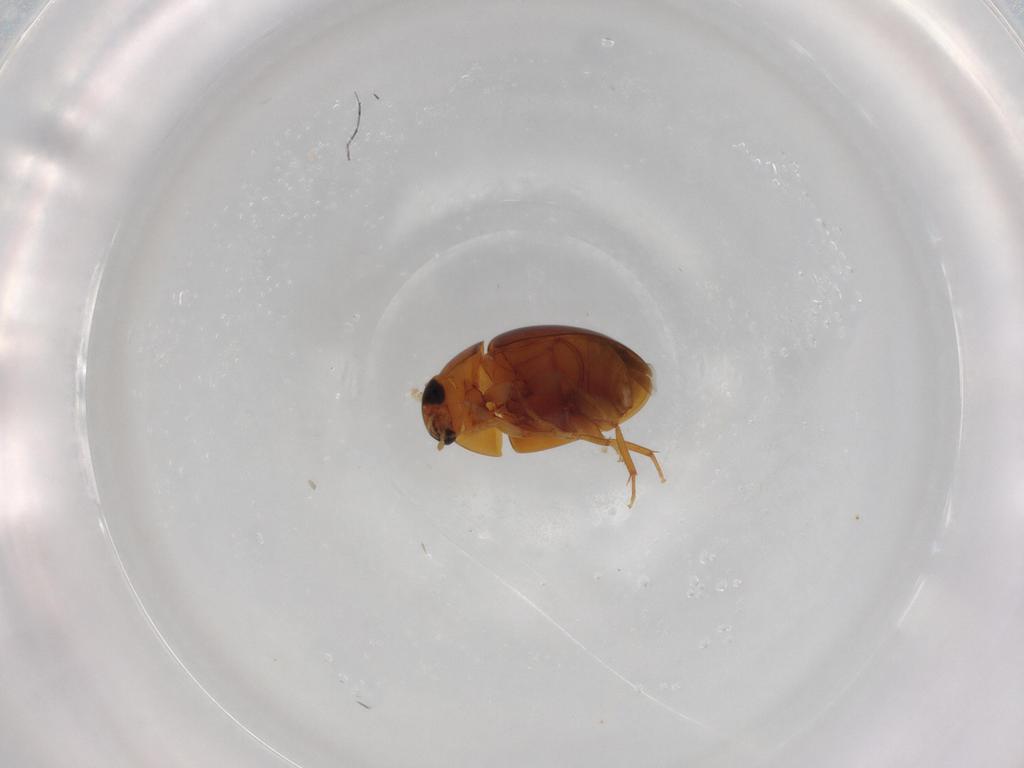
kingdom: Animalia
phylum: Arthropoda
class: Insecta
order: Coleoptera
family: Phalacridae
